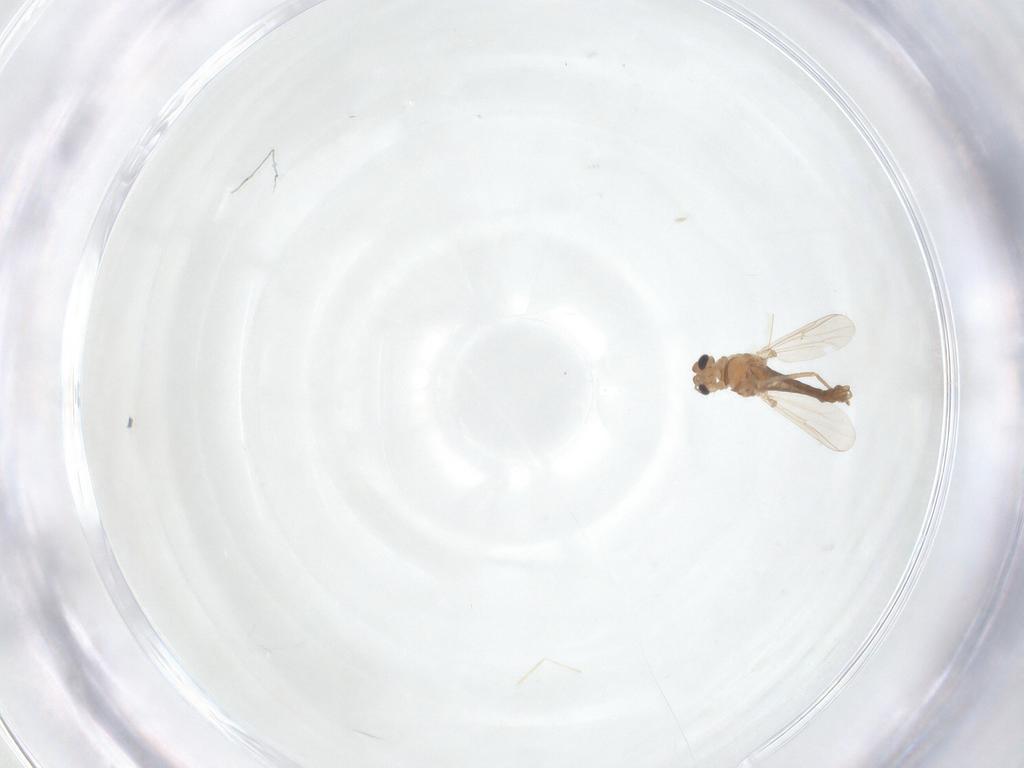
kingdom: Animalia
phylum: Arthropoda
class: Insecta
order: Diptera
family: Cecidomyiidae
